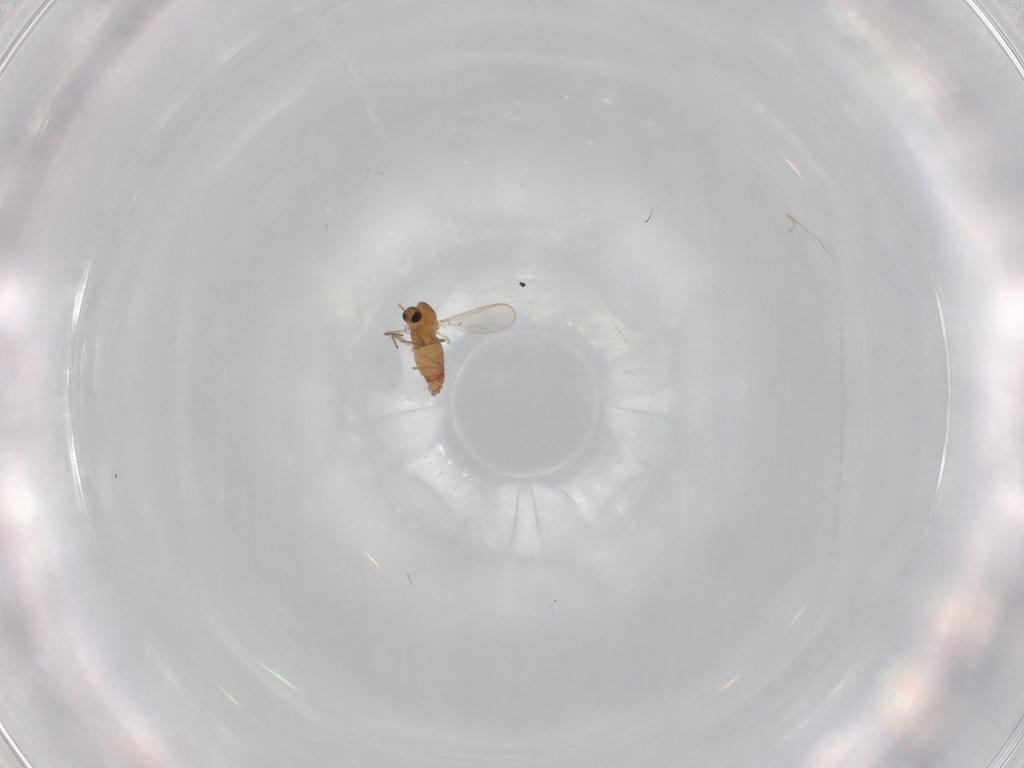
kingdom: Animalia
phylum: Arthropoda
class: Insecta
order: Diptera
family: Chironomidae
